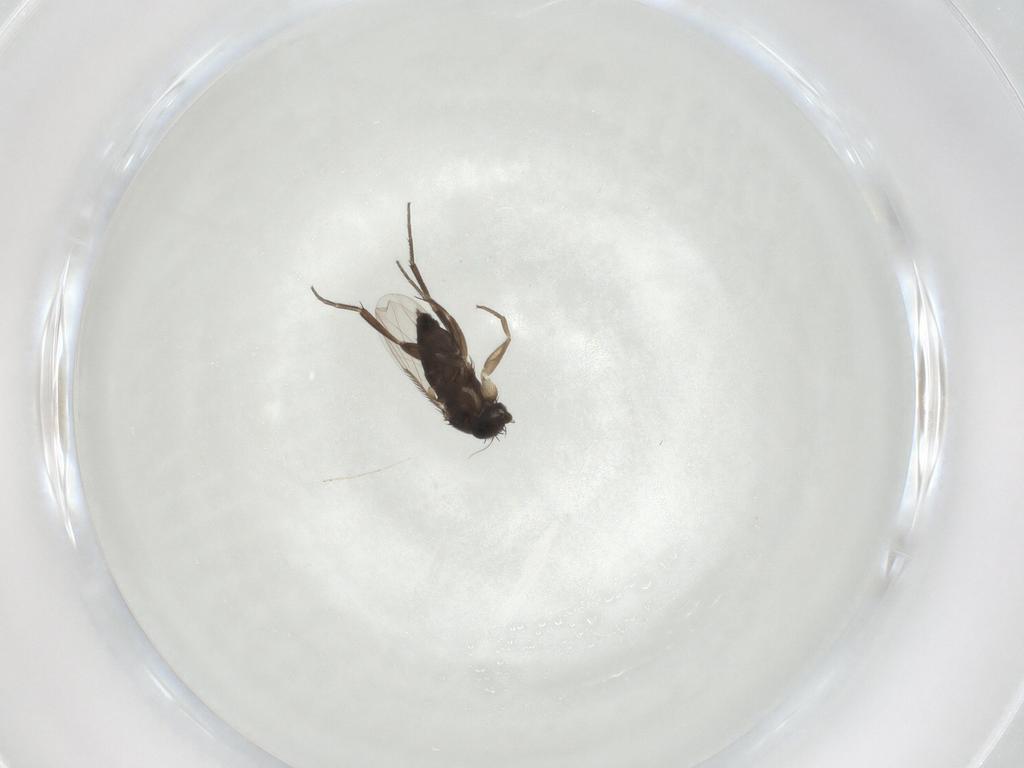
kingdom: Animalia
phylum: Arthropoda
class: Insecta
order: Diptera
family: Phoridae
